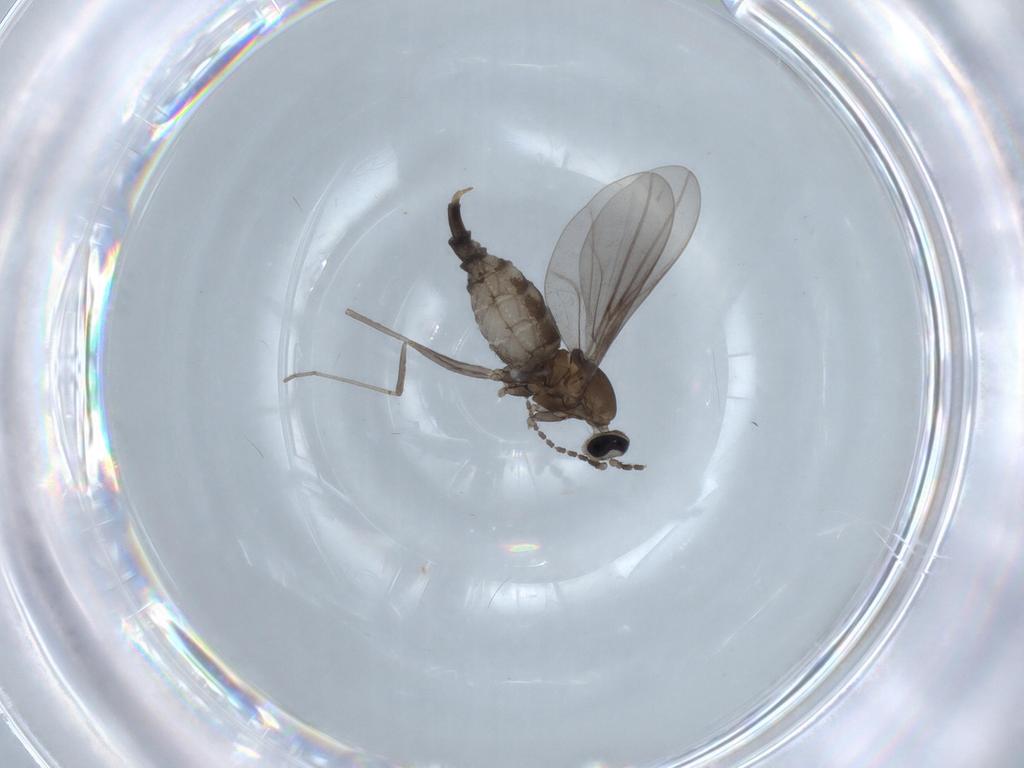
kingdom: Animalia
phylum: Arthropoda
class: Insecta
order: Diptera
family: Cecidomyiidae
